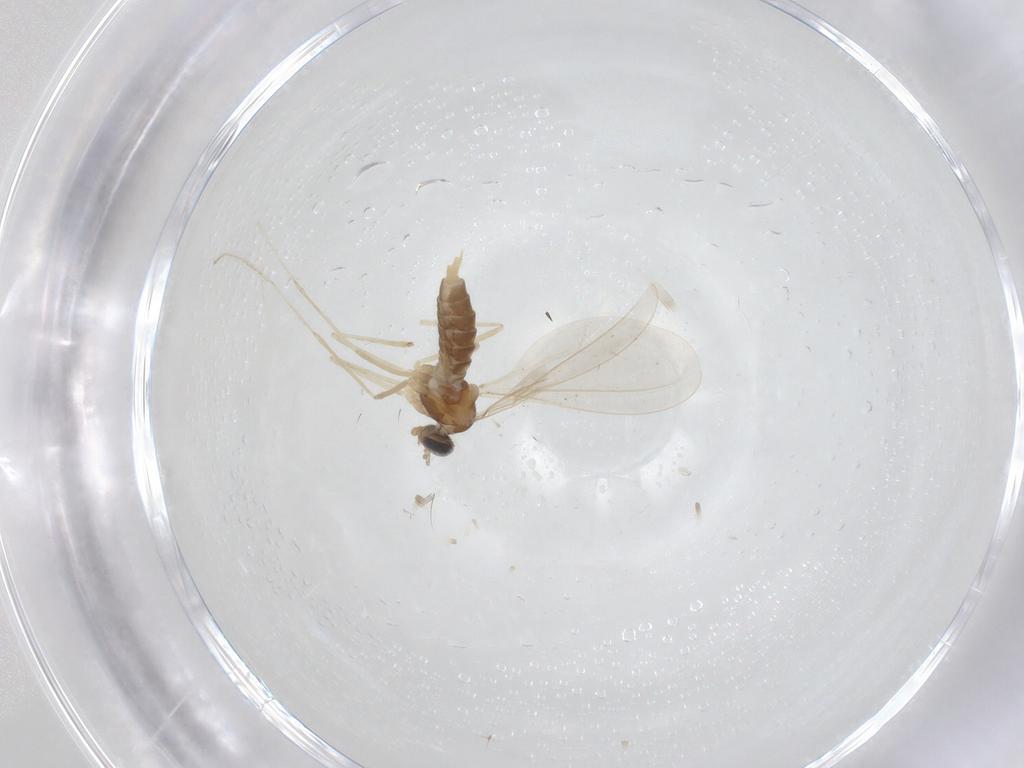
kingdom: Animalia
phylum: Arthropoda
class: Insecta
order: Diptera
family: Cecidomyiidae
